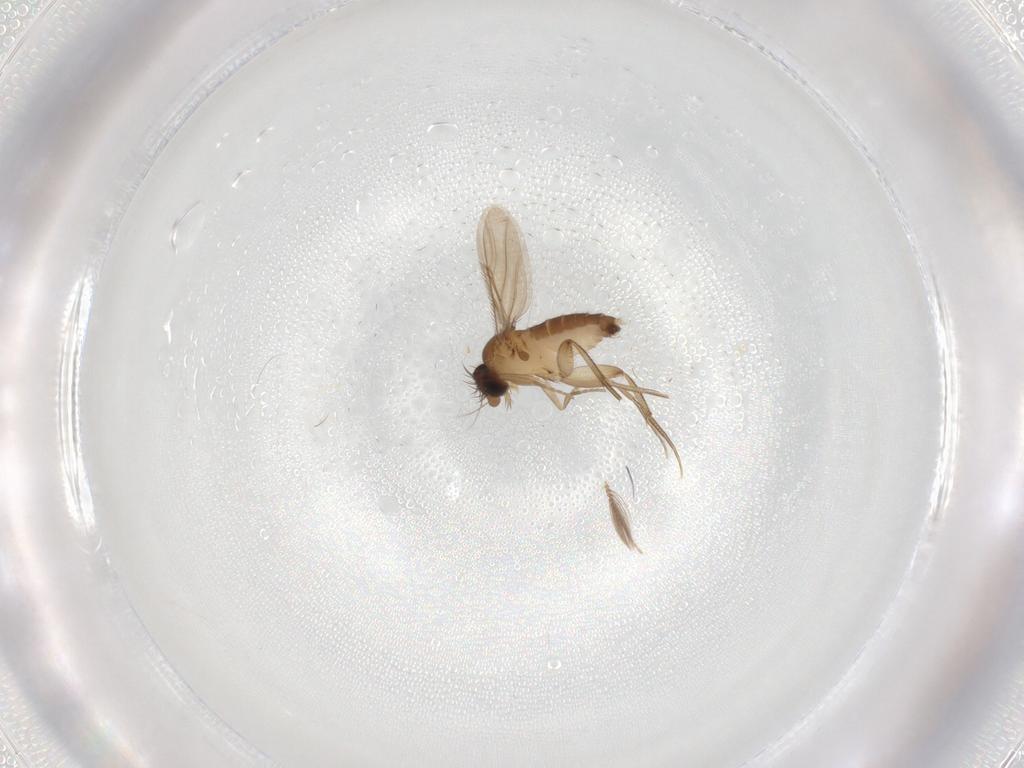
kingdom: Animalia
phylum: Arthropoda
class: Insecta
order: Diptera
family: Phoridae
